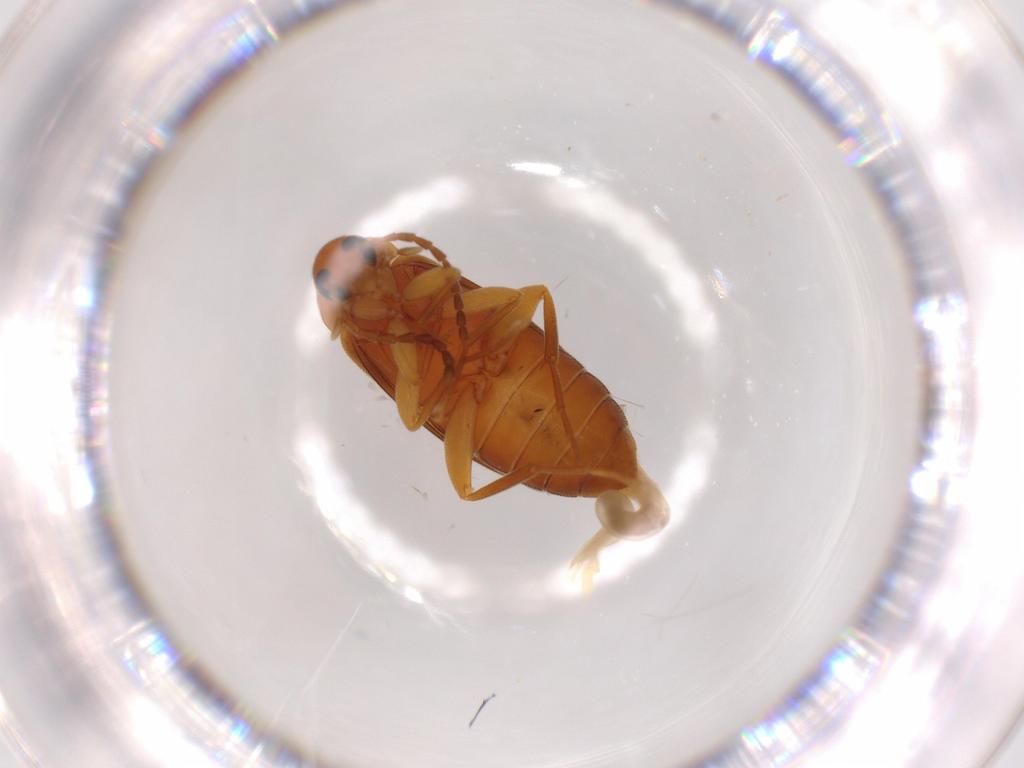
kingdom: Animalia
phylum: Arthropoda
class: Insecta
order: Coleoptera
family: Scraptiidae
